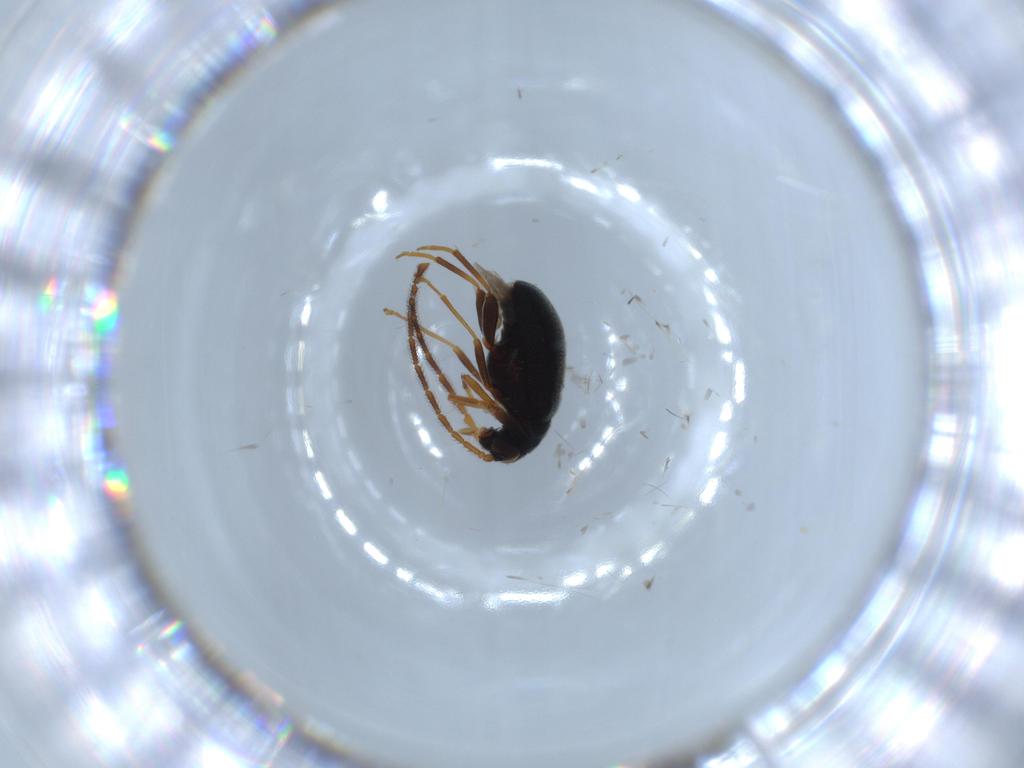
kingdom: Animalia
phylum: Arthropoda
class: Insecta
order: Coleoptera
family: Aderidae
